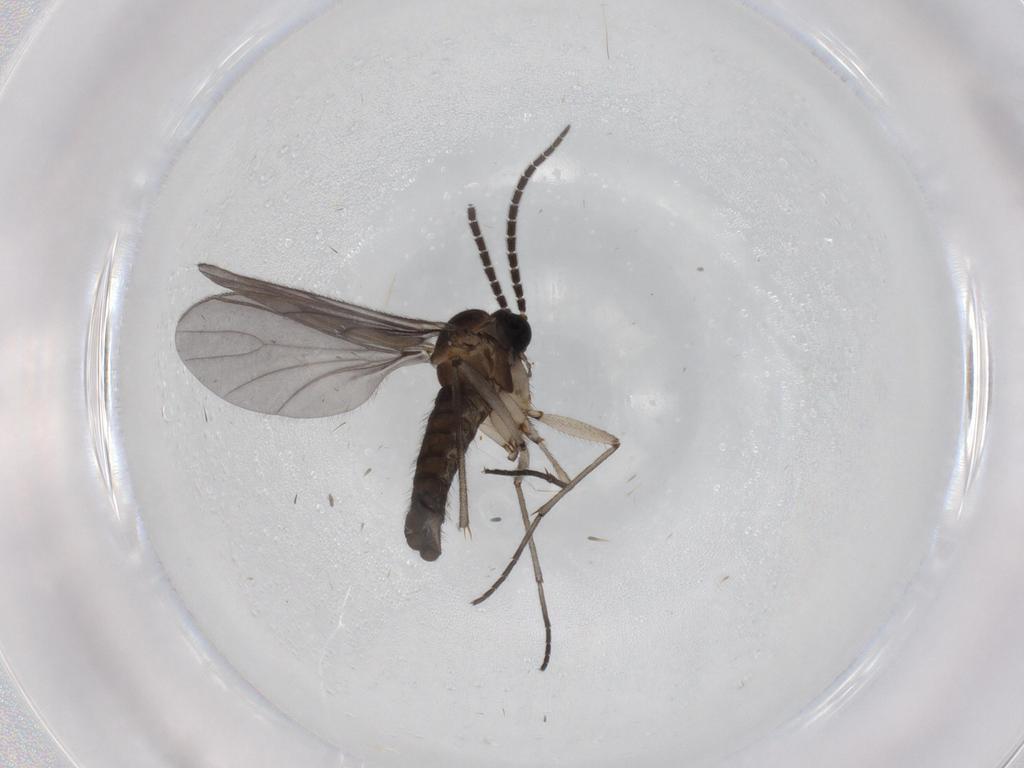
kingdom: Animalia
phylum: Arthropoda
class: Insecta
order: Diptera
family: Sciaridae
